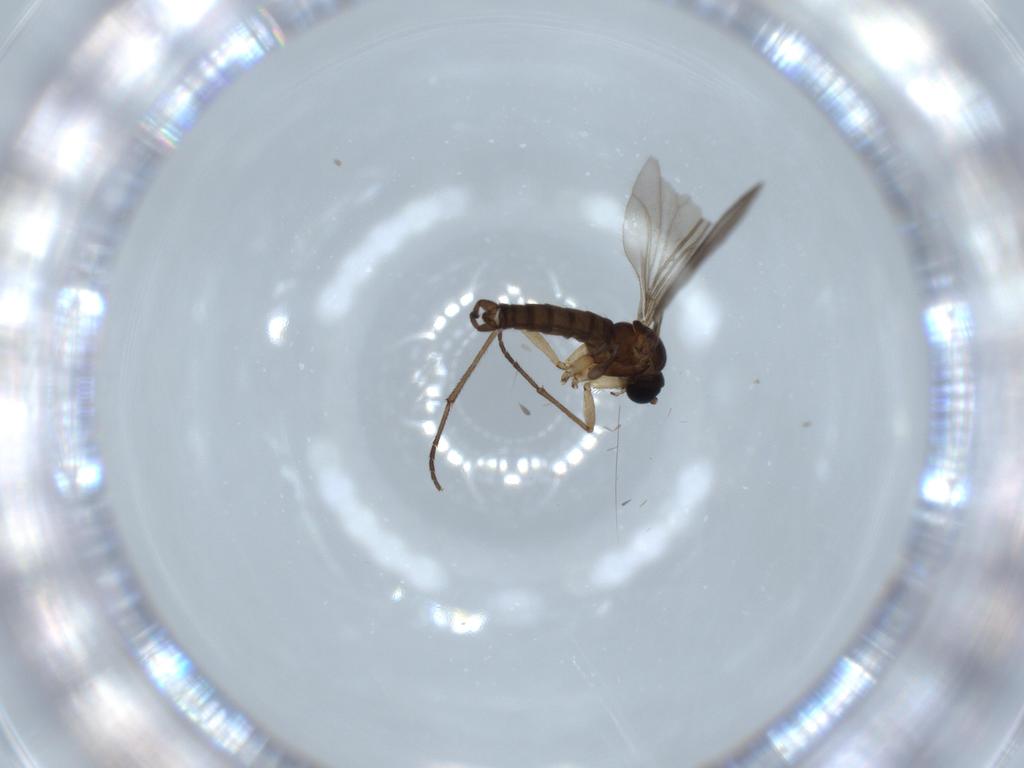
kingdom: Animalia
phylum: Arthropoda
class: Insecta
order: Diptera
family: Sciaridae
